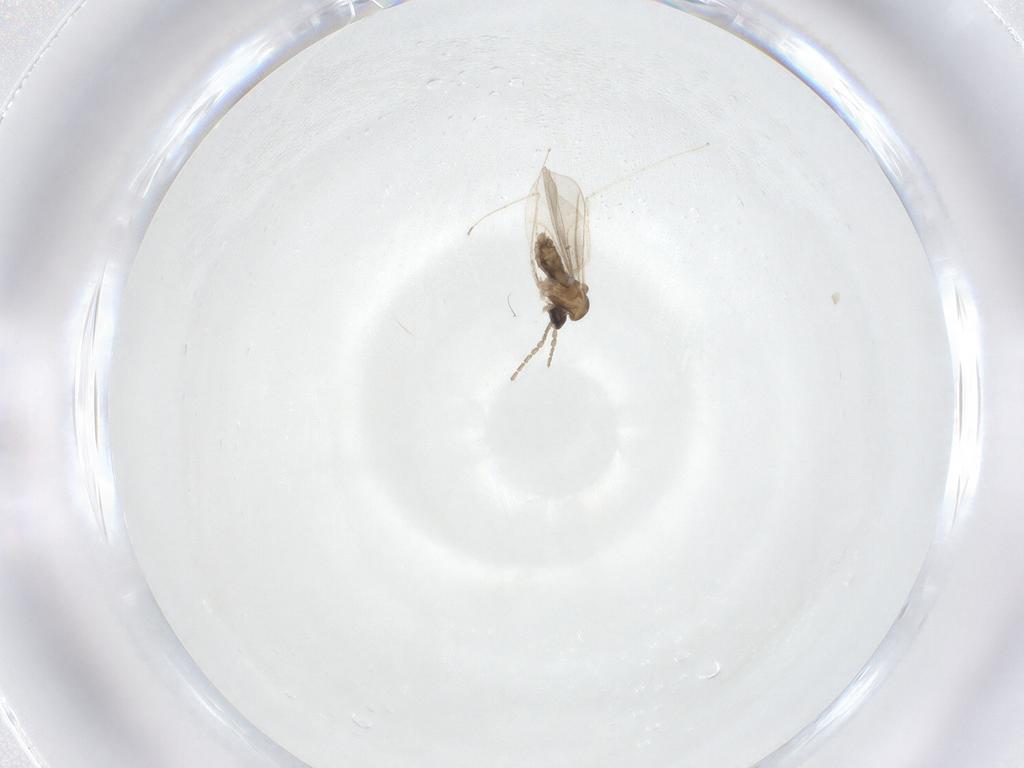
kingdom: Animalia
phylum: Arthropoda
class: Insecta
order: Diptera
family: Cecidomyiidae
